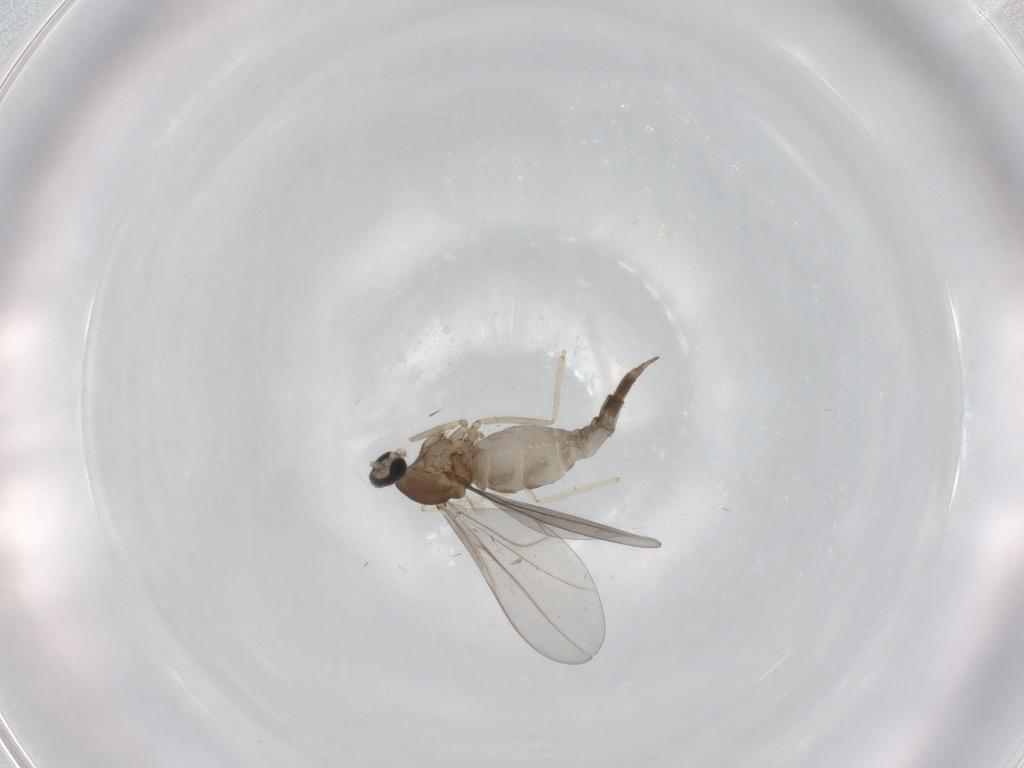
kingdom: Animalia
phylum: Arthropoda
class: Insecta
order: Diptera
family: Cecidomyiidae
